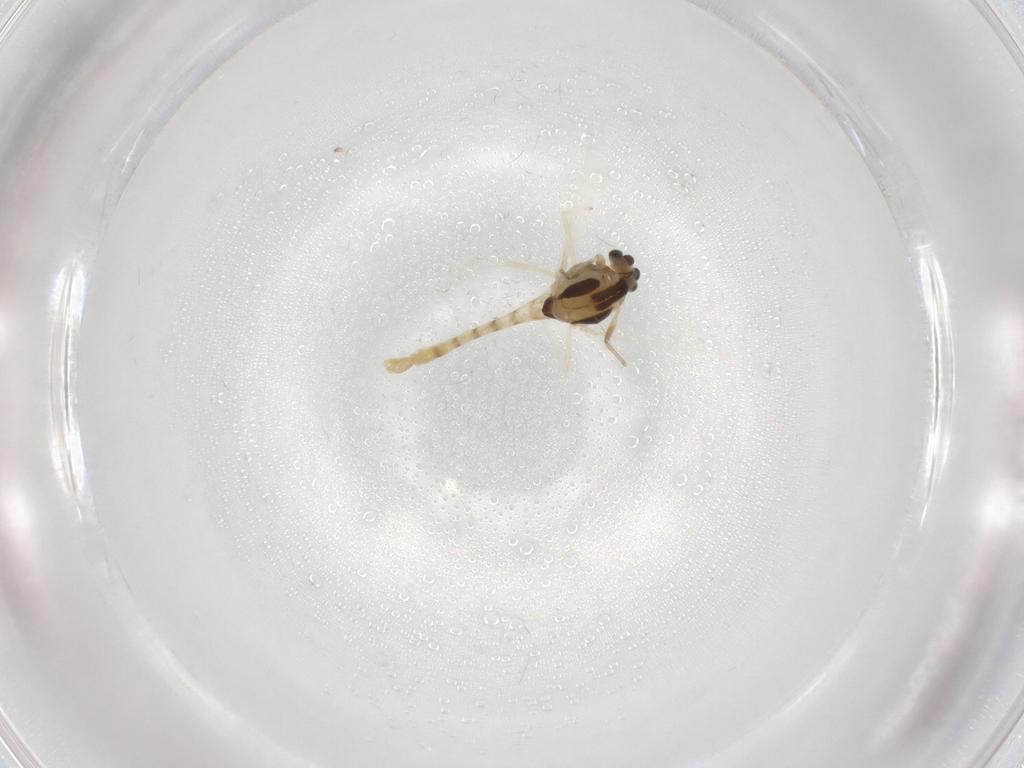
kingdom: Animalia
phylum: Arthropoda
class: Insecta
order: Diptera
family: Chironomidae
